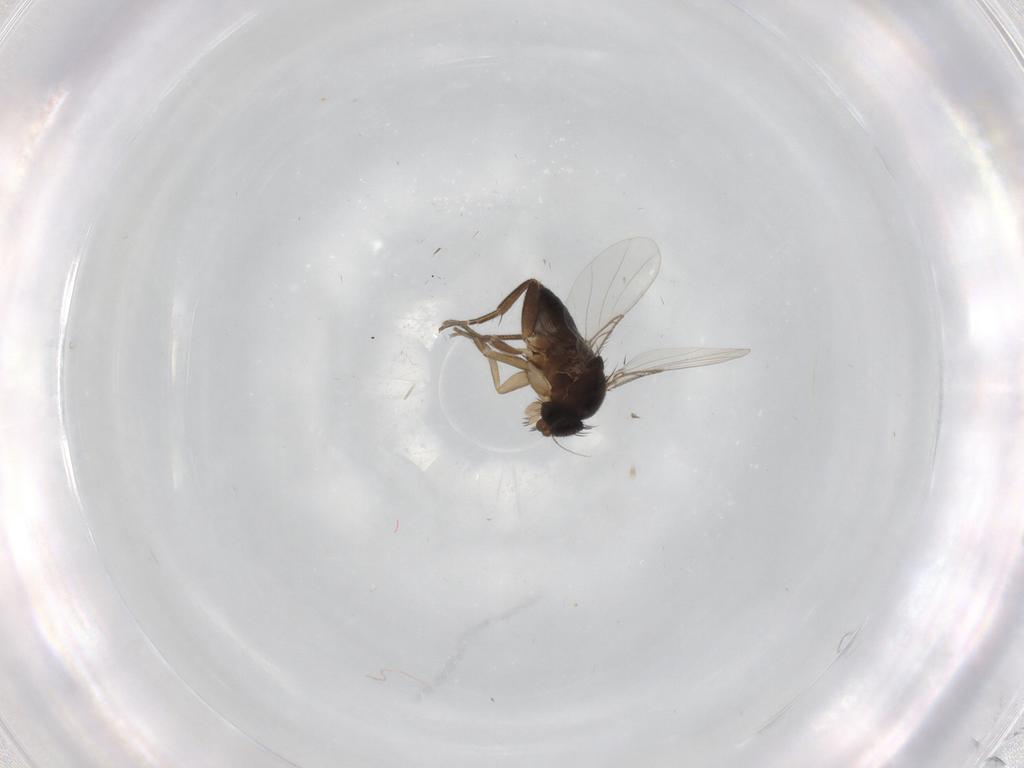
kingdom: Animalia
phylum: Arthropoda
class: Insecta
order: Diptera
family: Phoridae
